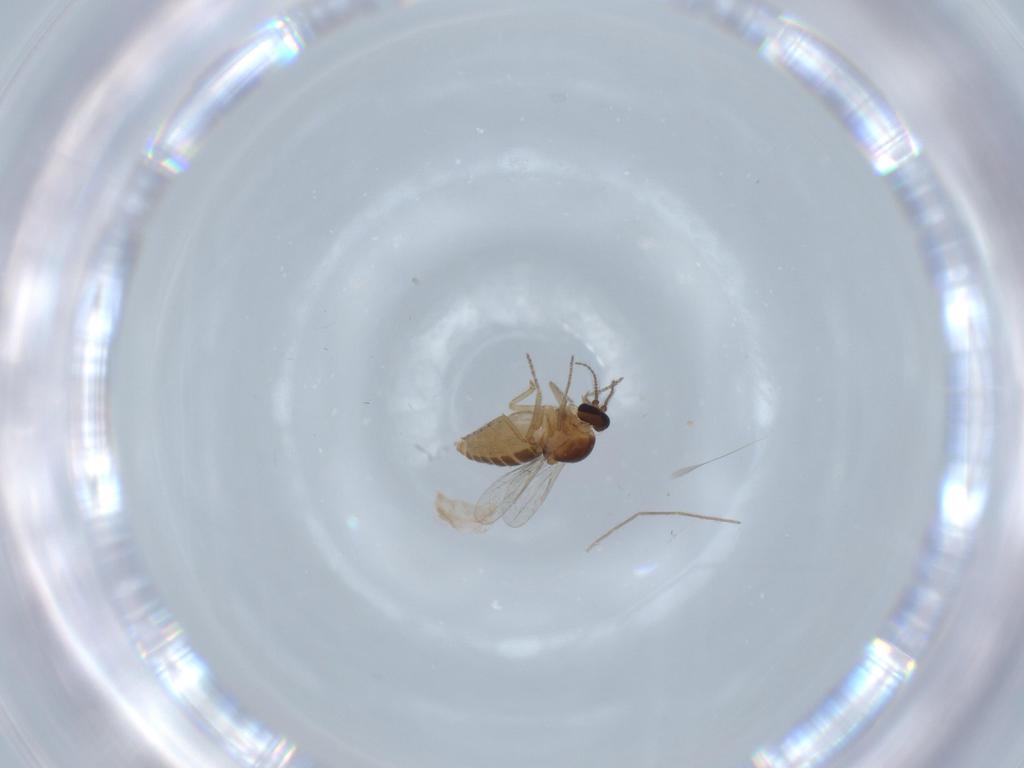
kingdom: Animalia
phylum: Arthropoda
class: Insecta
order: Diptera
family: Ceratopogonidae
